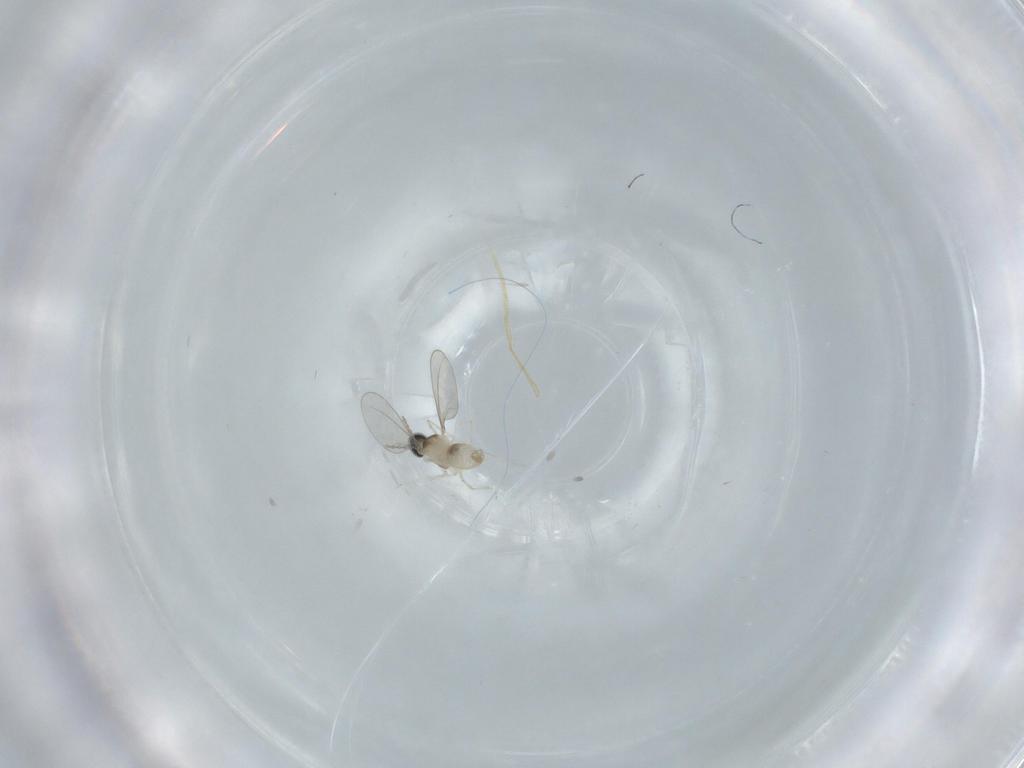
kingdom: Animalia
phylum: Arthropoda
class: Insecta
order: Diptera
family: Cecidomyiidae
